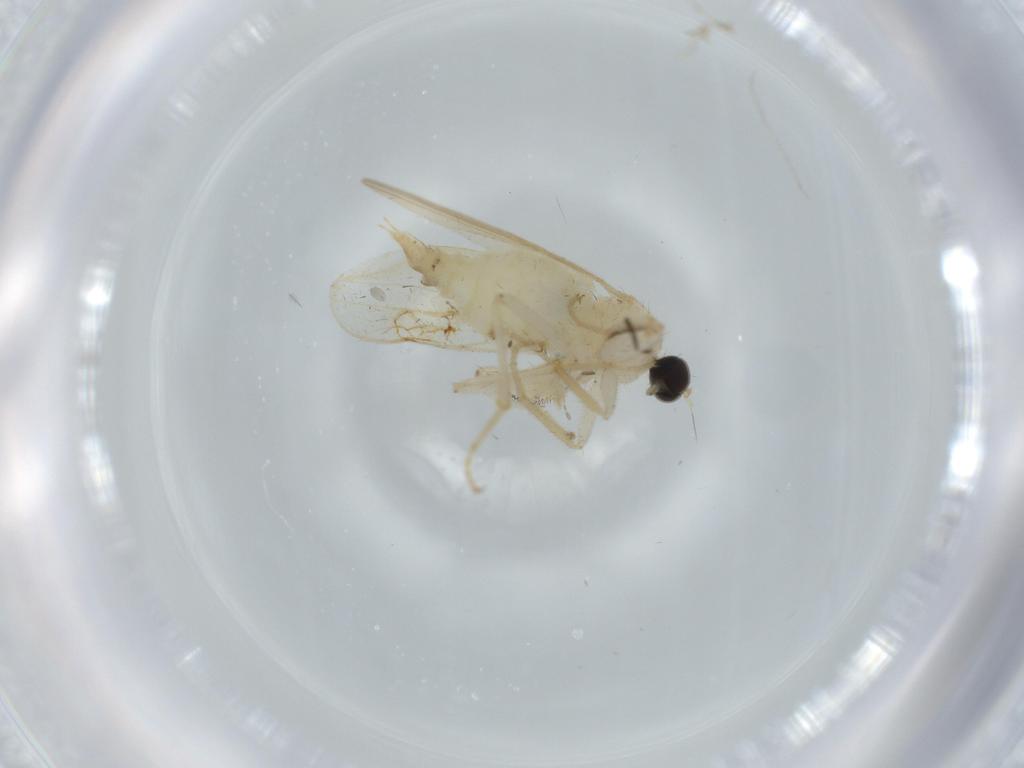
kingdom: Animalia
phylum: Arthropoda
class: Insecta
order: Diptera
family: Hybotidae
